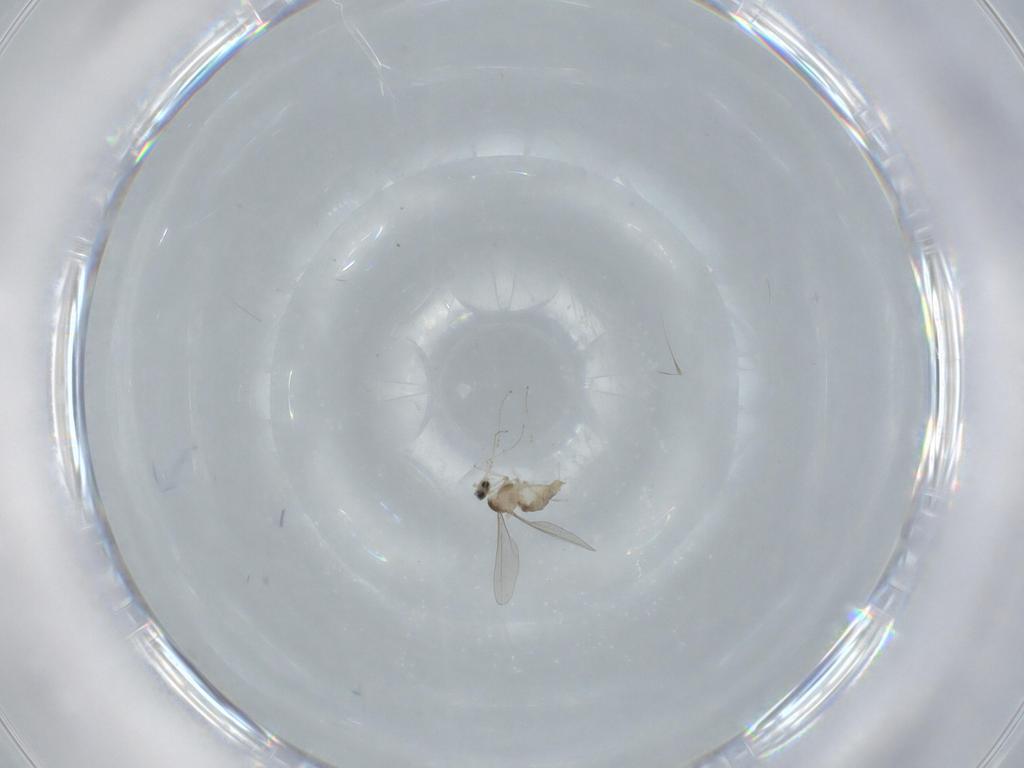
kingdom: Animalia
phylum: Arthropoda
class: Insecta
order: Diptera
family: Cecidomyiidae
